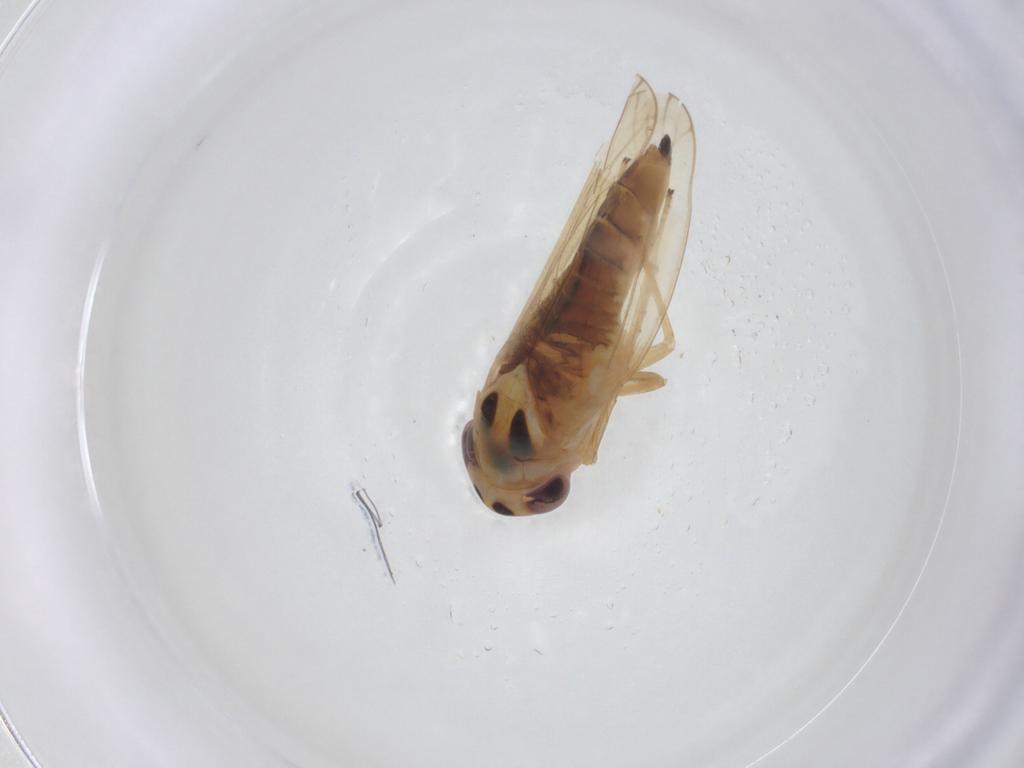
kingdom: Animalia
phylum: Arthropoda
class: Insecta
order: Hemiptera
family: Cicadellidae
